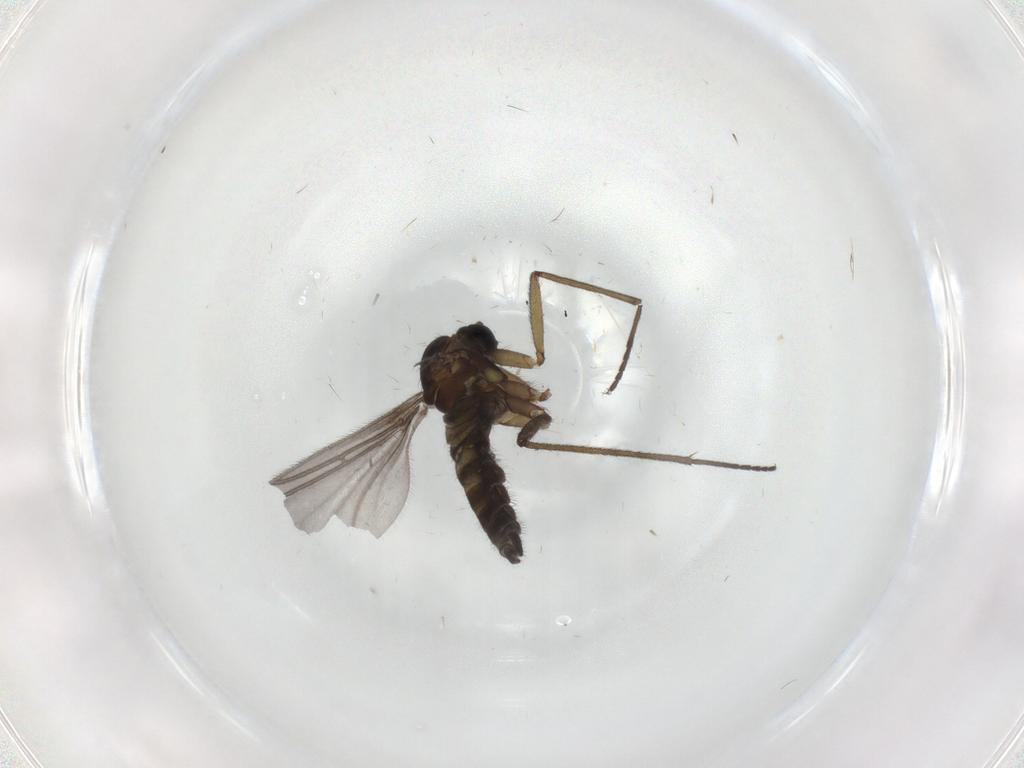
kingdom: Animalia
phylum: Arthropoda
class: Insecta
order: Diptera
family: Sciaridae
